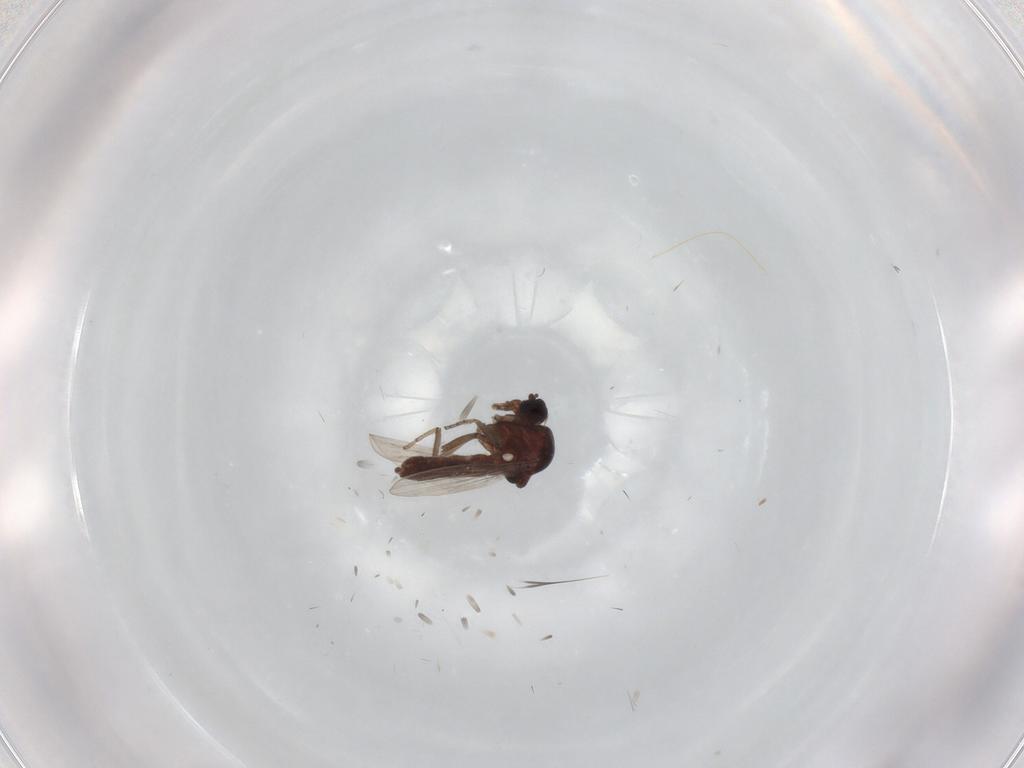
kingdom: Animalia
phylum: Arthropoda
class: Insecta
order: Diptera
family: Ceratopogonidae
